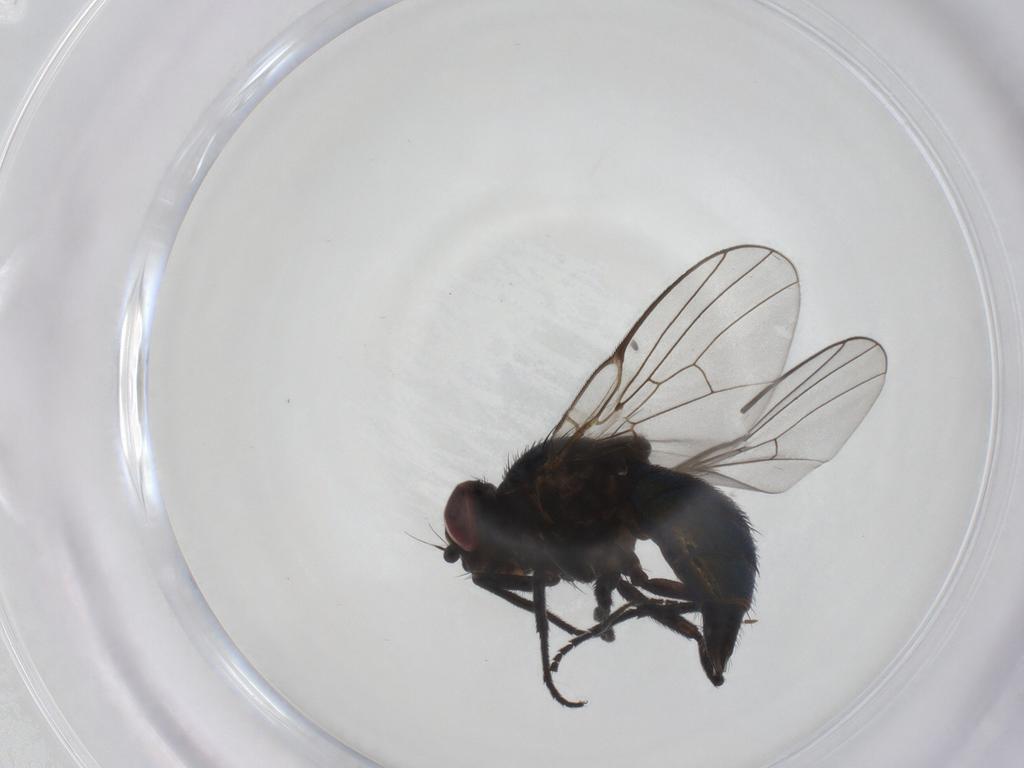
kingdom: Animalia
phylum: Arthropoda
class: Insecta
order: Diptera
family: Agromyzidae
